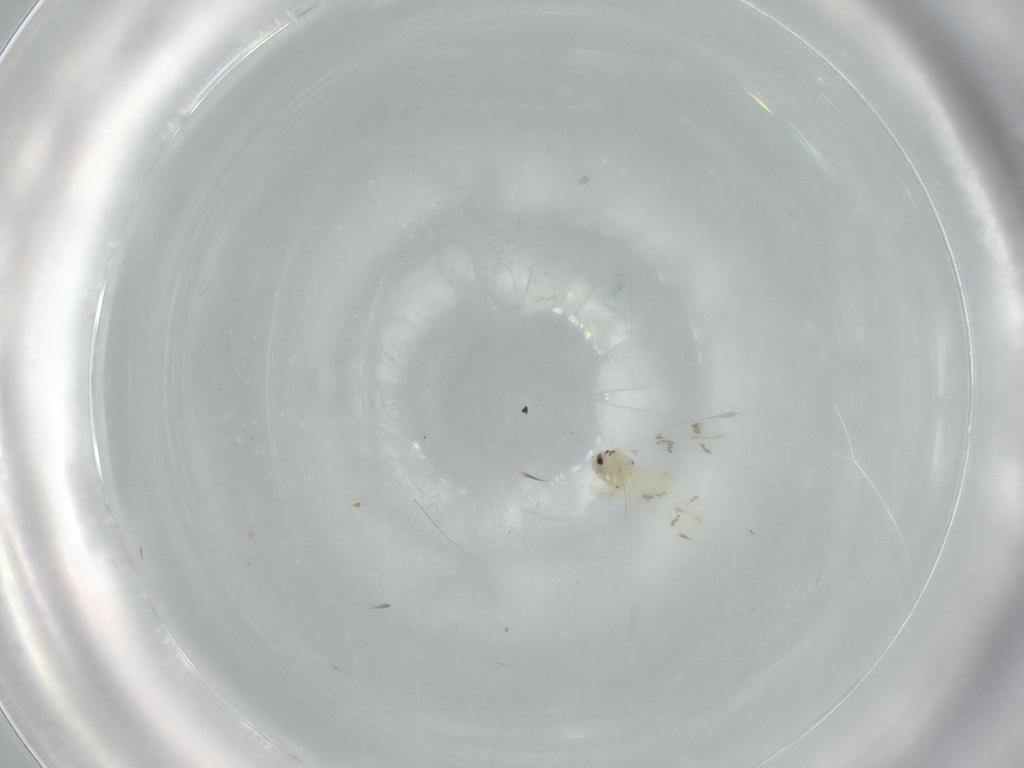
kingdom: Animalia
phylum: Arthropoda
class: Insecta
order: Hemiptera
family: Aleyrodidae
